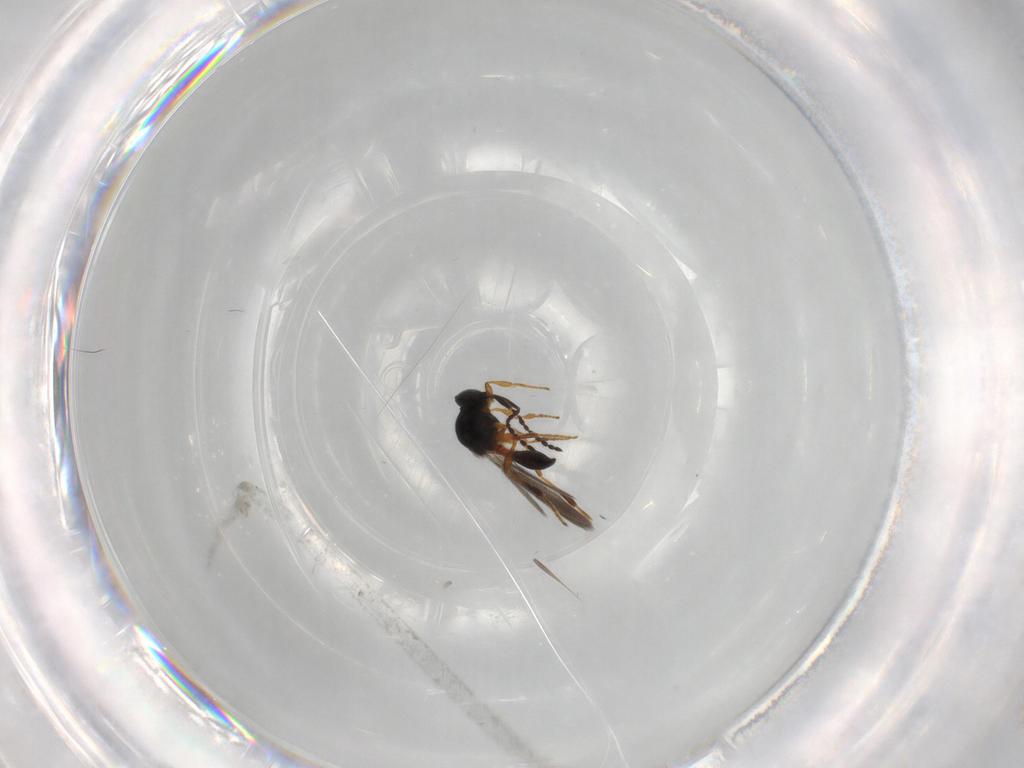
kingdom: Animalia
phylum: Arthropoda
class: Insecta
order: Hymenoptera
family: Platygastridae
